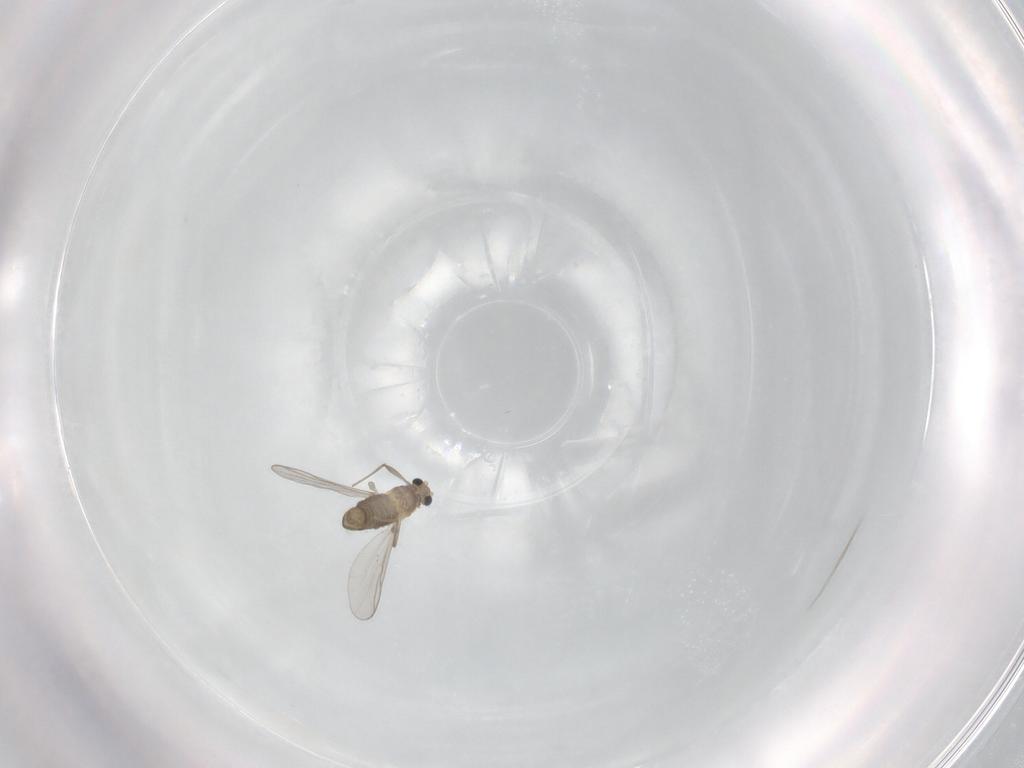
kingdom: Animalia
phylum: Arthropoda
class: Insecta
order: Diptera
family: Chironomidae
